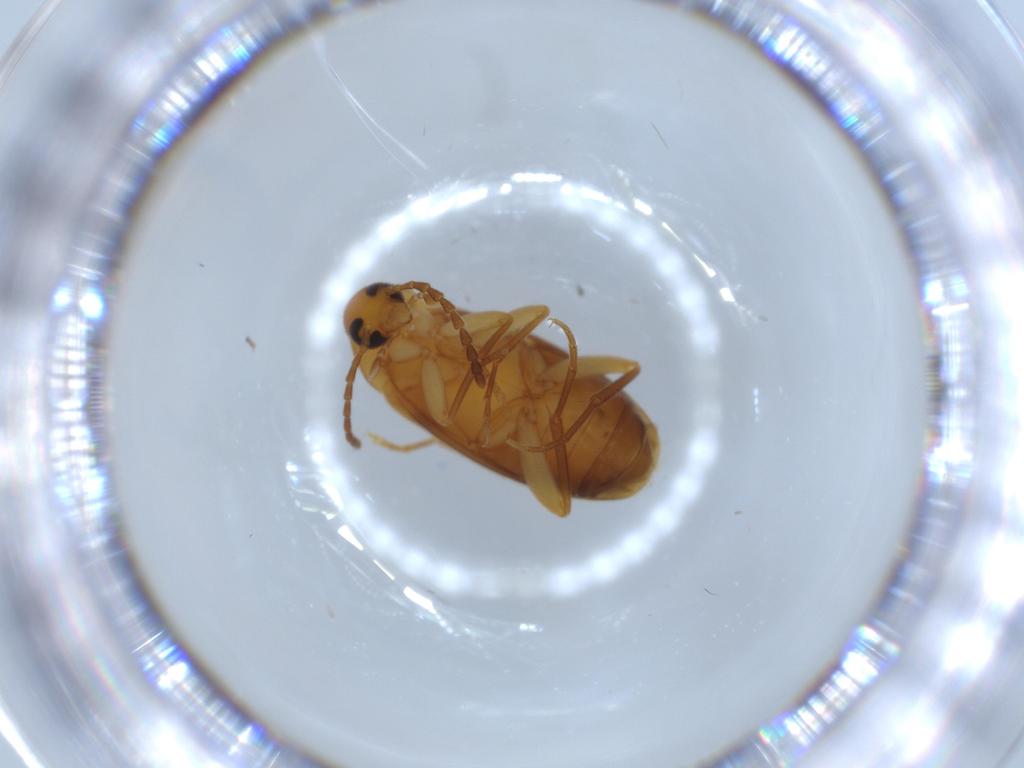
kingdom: Animalia
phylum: Arthropoda
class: Insecta
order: Coleoptera
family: Scraptiidae
